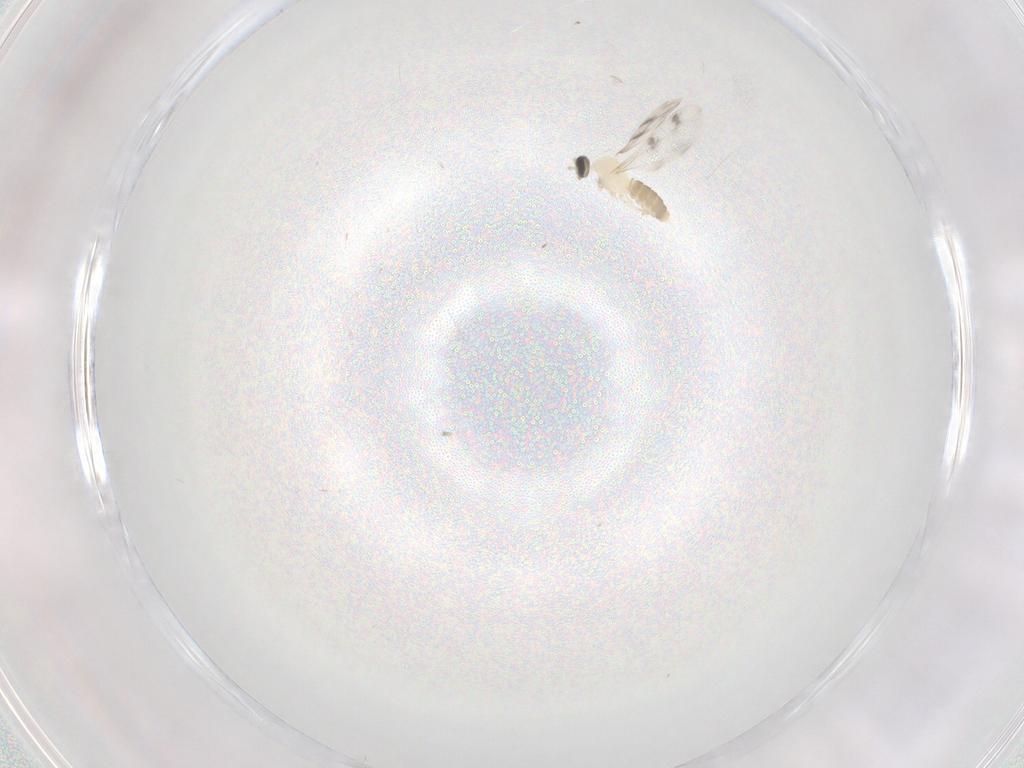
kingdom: Animalia
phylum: Arthropoda
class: Insecta
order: Diptera
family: Cecidomyiidae
